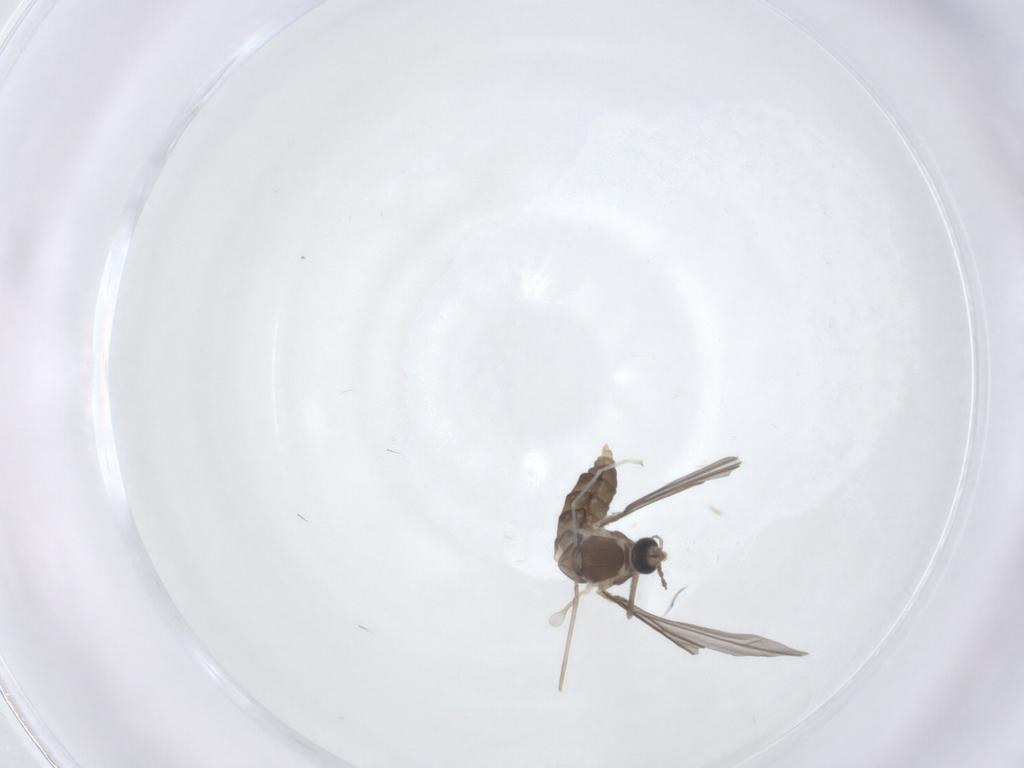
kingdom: Animalia
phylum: Arthropoda
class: Insecta
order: Diptera
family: Cecidomyiidae
